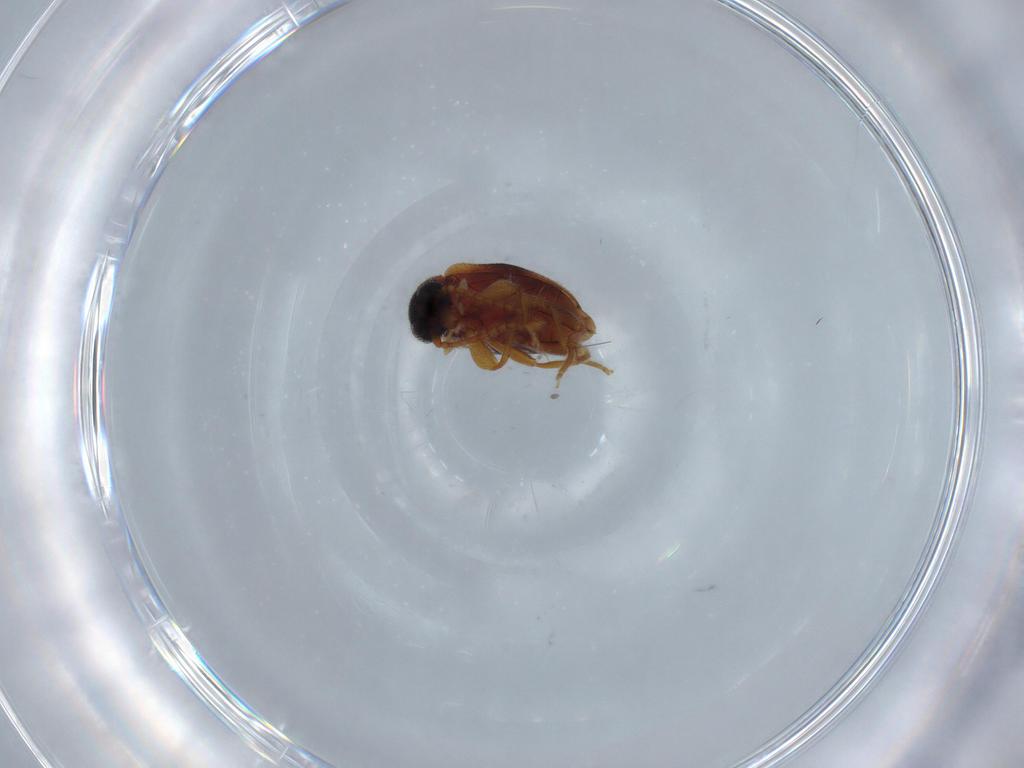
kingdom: Animalia
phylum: Arthropoda
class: Insecta
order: Coleoptera
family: Aderidae
